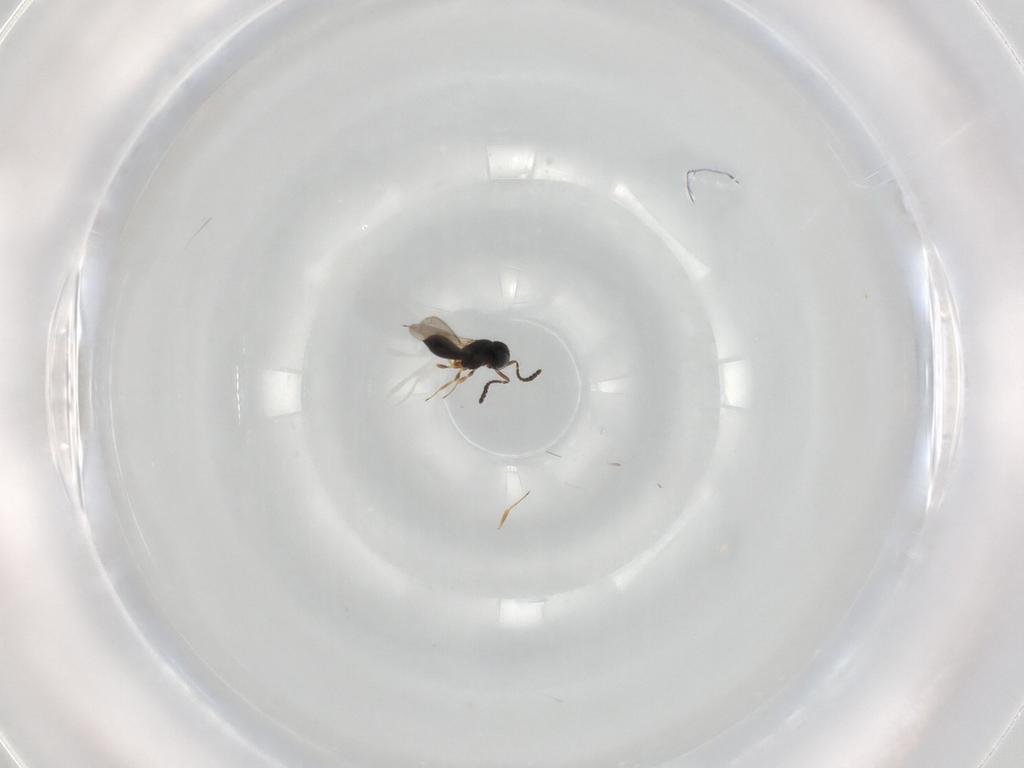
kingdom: Animalia
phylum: Arthropoda
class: Insecta
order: Hymenoptera
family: Scelionidae
